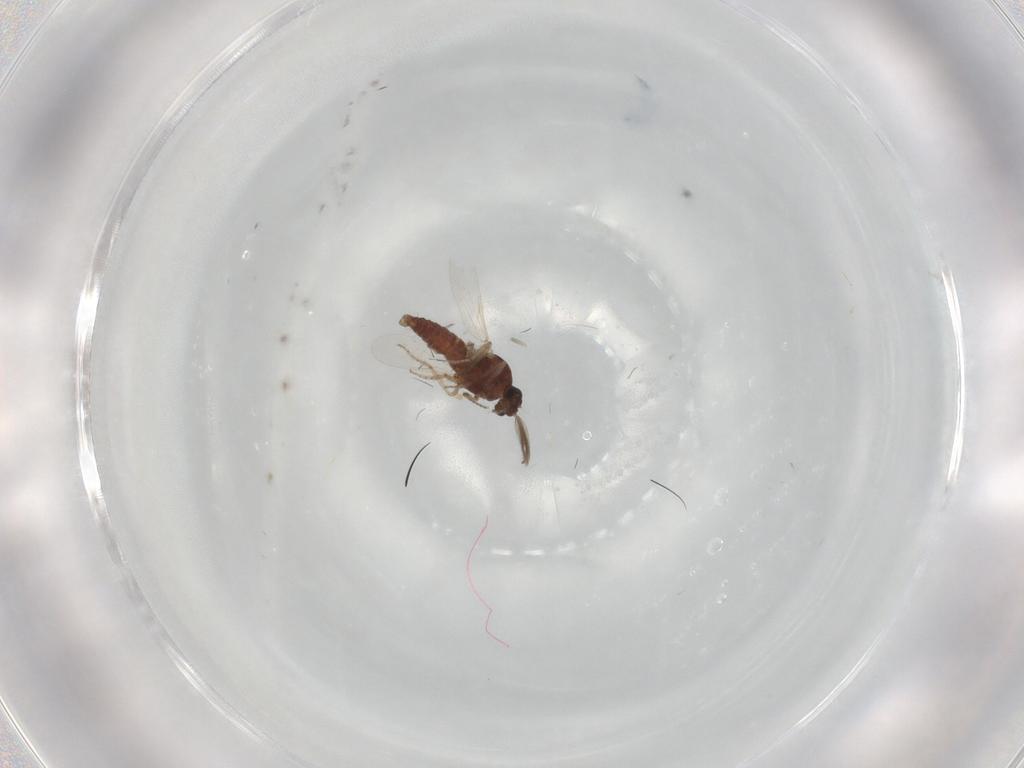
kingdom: Animalia
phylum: Arthropoda
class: Insecta
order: Diptera
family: Ceratopogonidae
